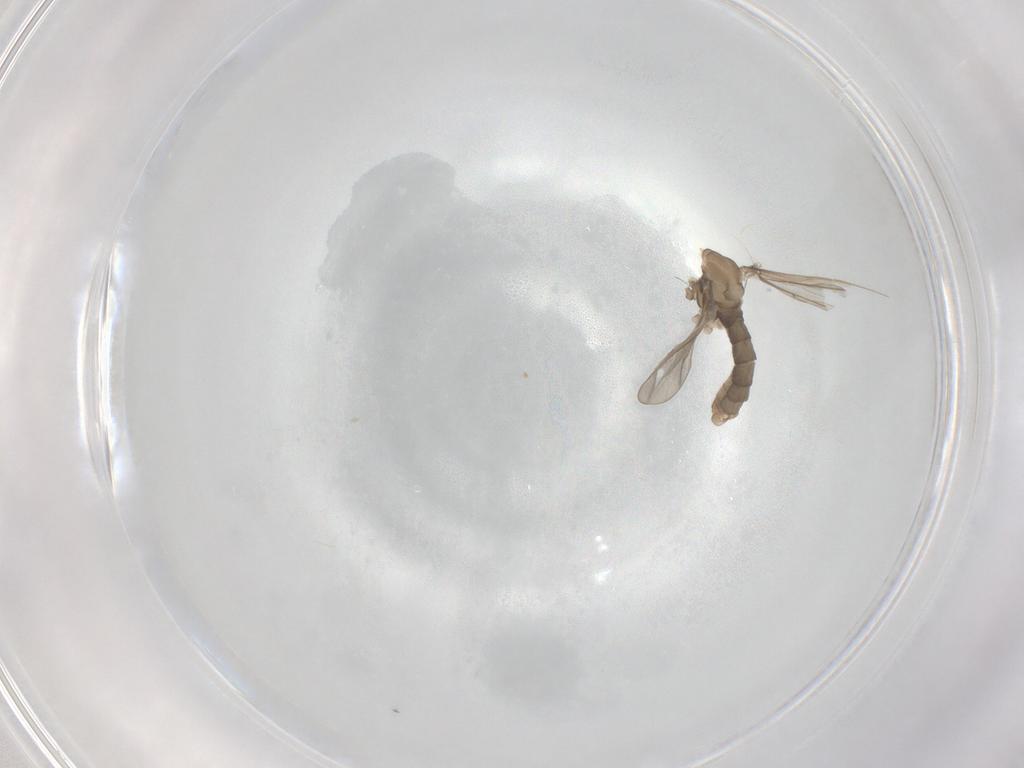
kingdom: Animalia
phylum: Arthropoda
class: Insecta
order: Diptera
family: Cecidomyiidae
